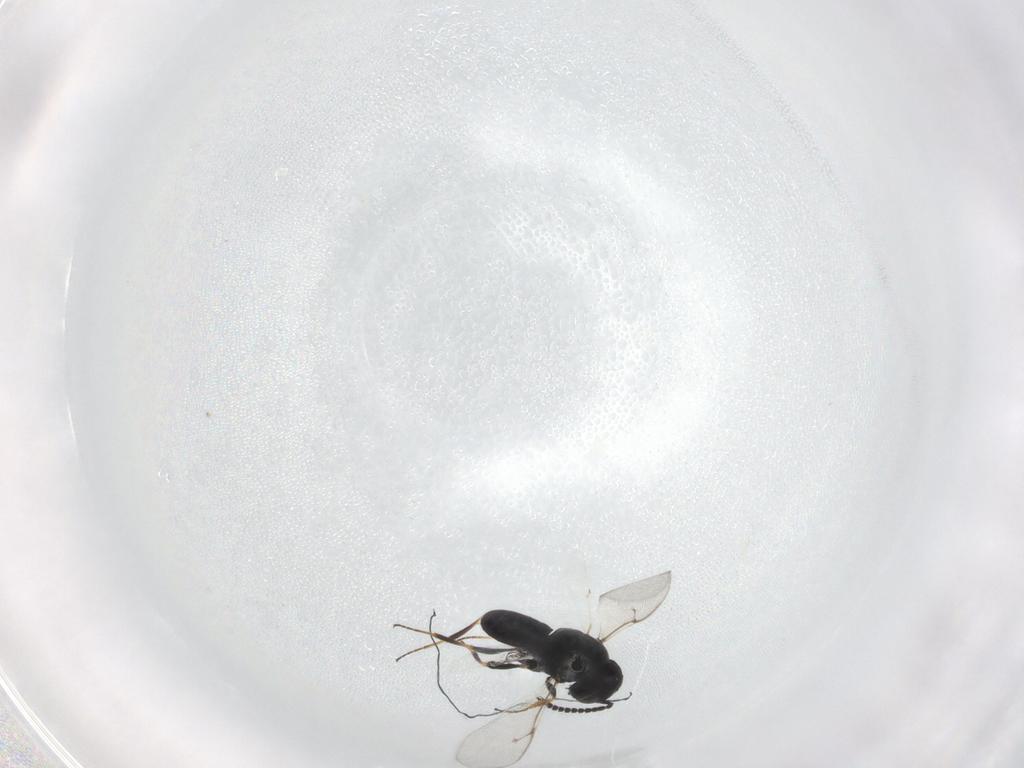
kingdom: Animalia
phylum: Arthropoda
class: Insecta
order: Hymenoptera
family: Scelionidae
